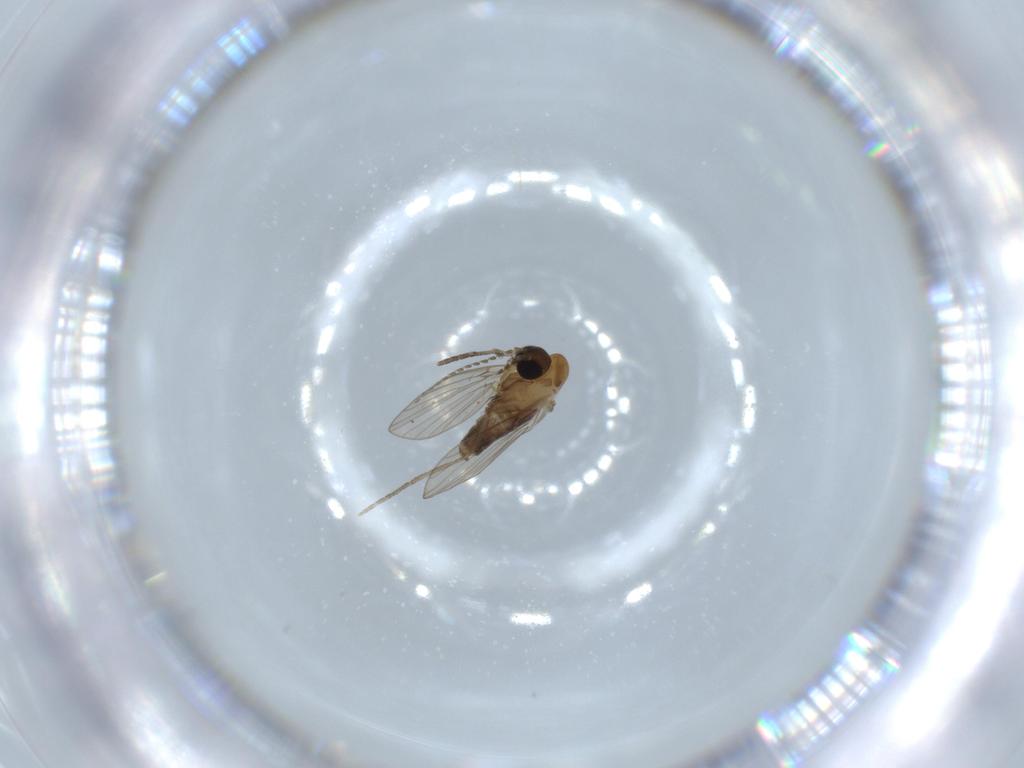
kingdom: Animalia
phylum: Arthropoda
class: Insecta
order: Diptera
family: Psychodidae
